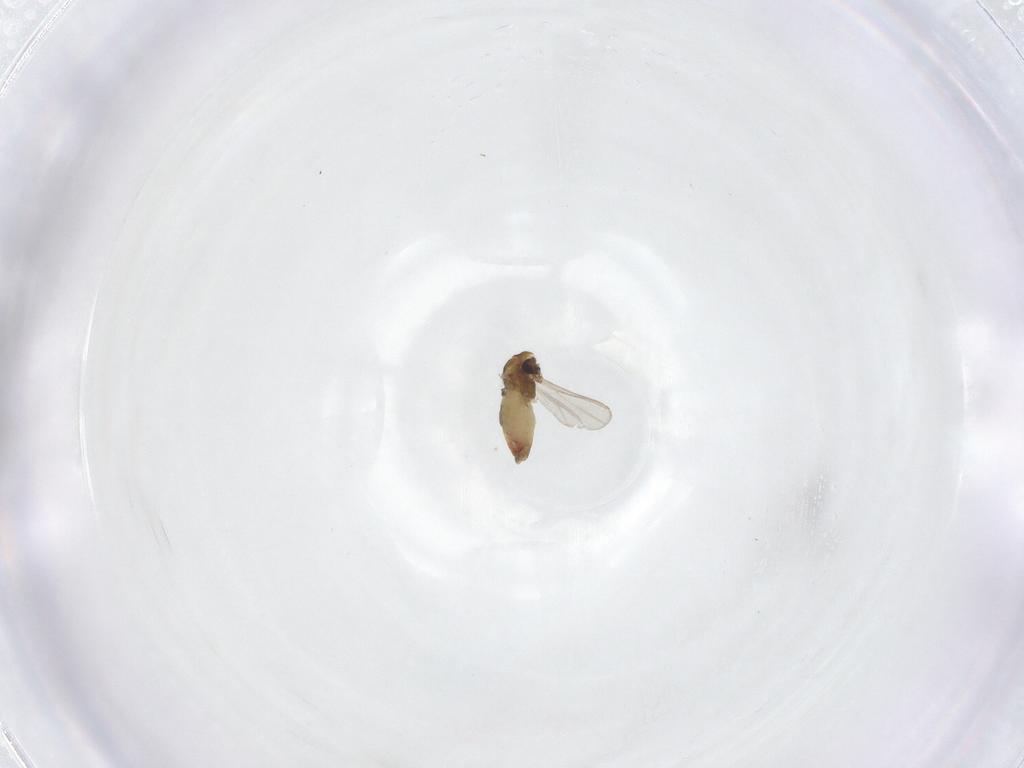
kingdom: Animalia
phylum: Arthropoda
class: Insecta
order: Diptera
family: Chironomidae
